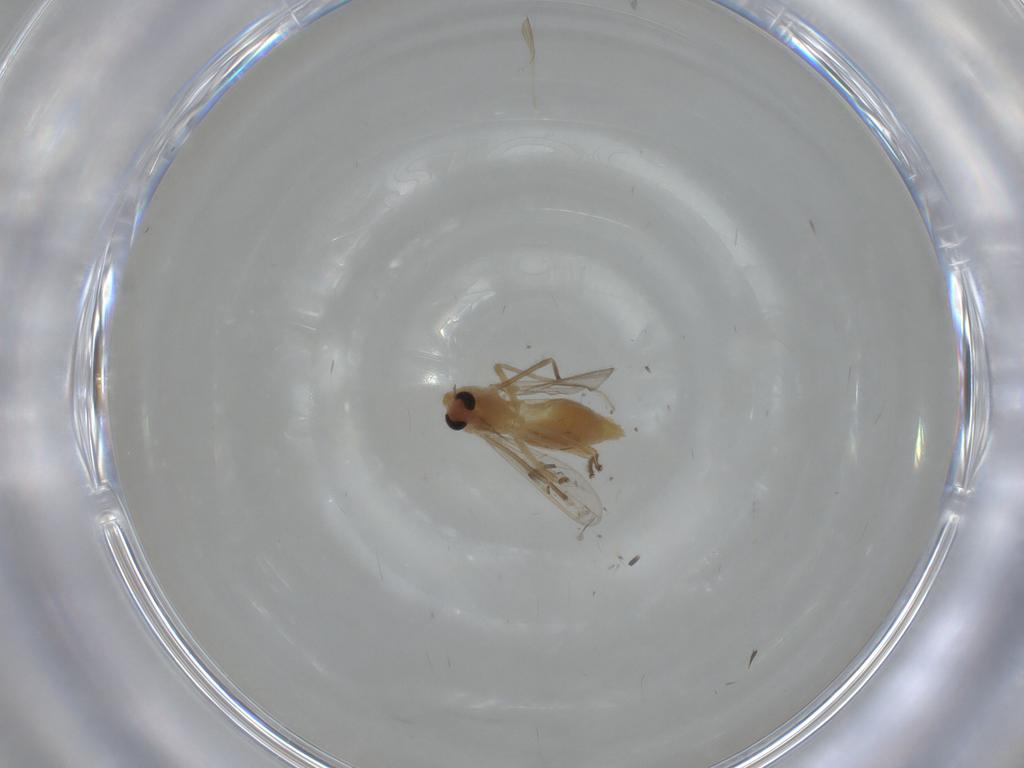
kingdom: Animalia
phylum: Arthropoda
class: Insecta
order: Diptera
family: Chironomidae
